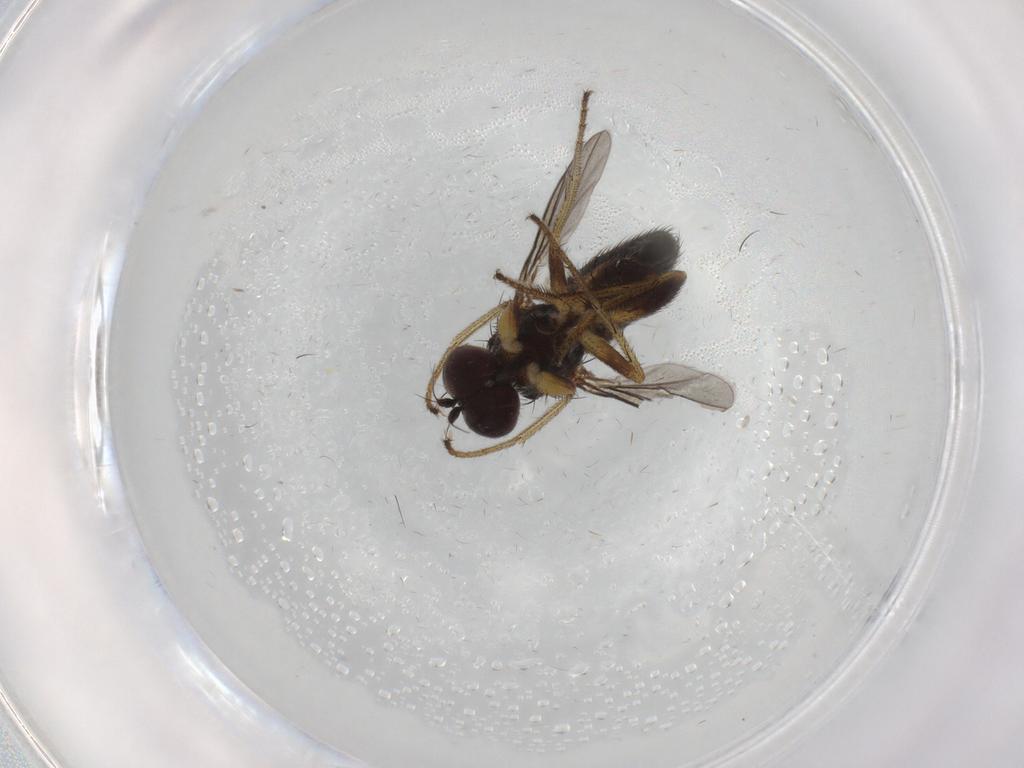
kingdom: Animalia
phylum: Arthropoda
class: Insecta
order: Diptera
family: Dolichopodidae
